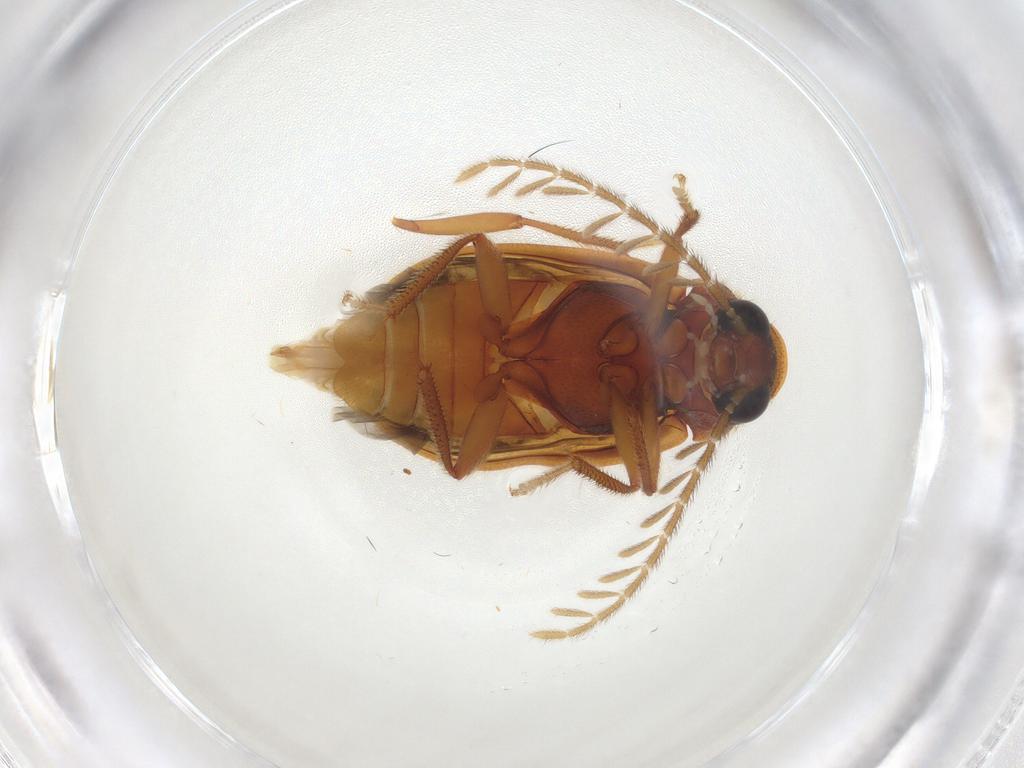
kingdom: Animalia
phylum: Arthropoda
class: Insecta
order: Coleoptera
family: Ptilodactylidae
